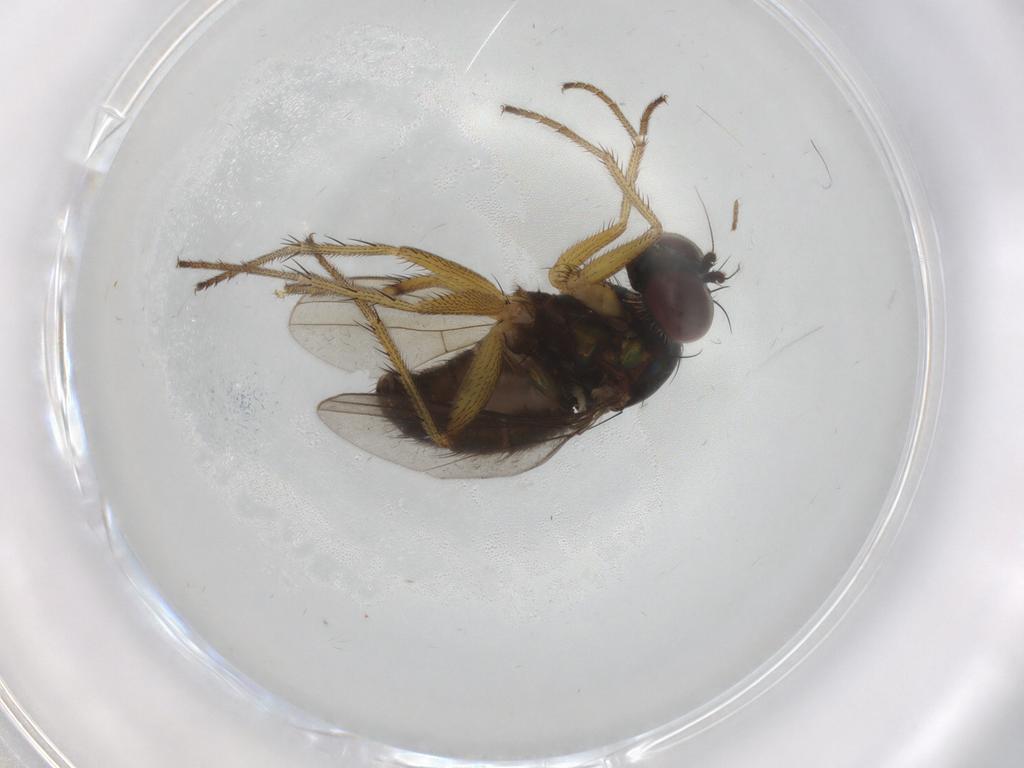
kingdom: Animalia
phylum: Arthropoda
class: Insecta
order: Diptera
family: Dolichopodidae
